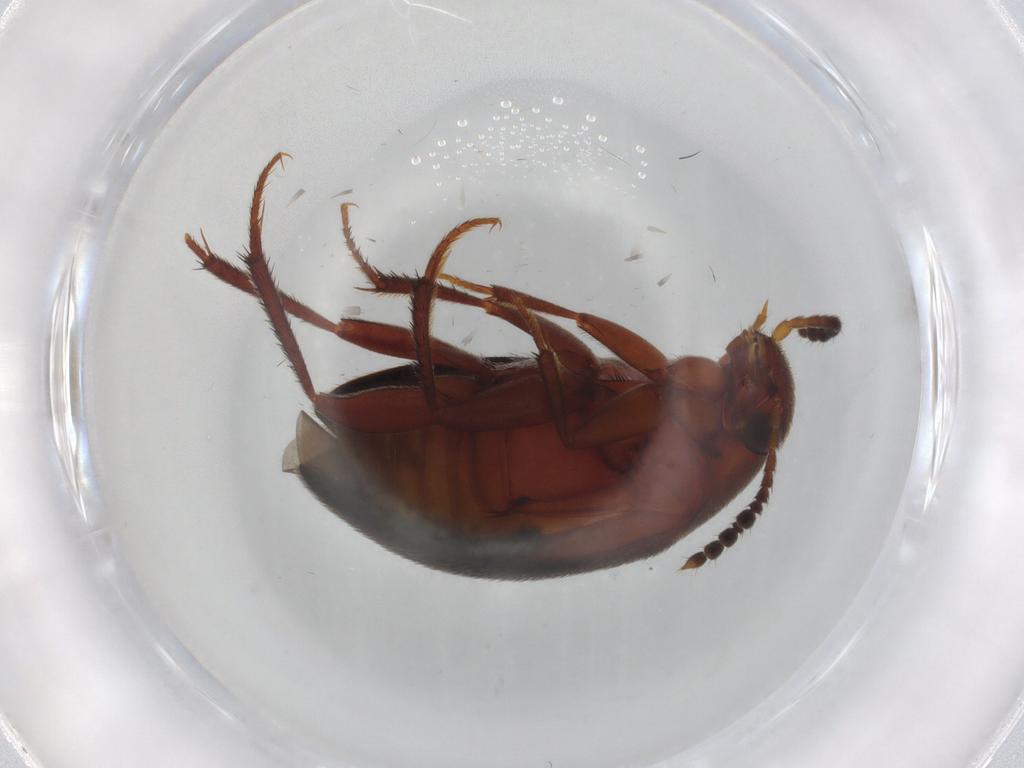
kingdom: Animalia
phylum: Arthropoda
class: Insecta
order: Coleoptera
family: Leiodidae
